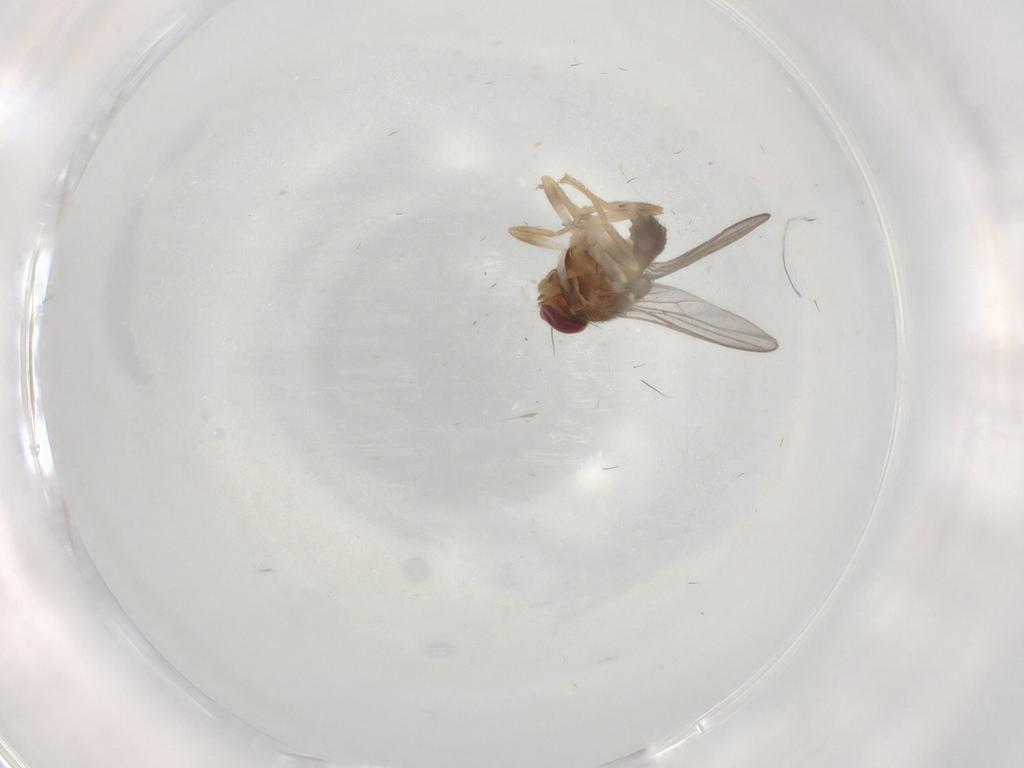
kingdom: Animalia
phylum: Arthropoda
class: Insecta
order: Diptera
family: Chloropidae
